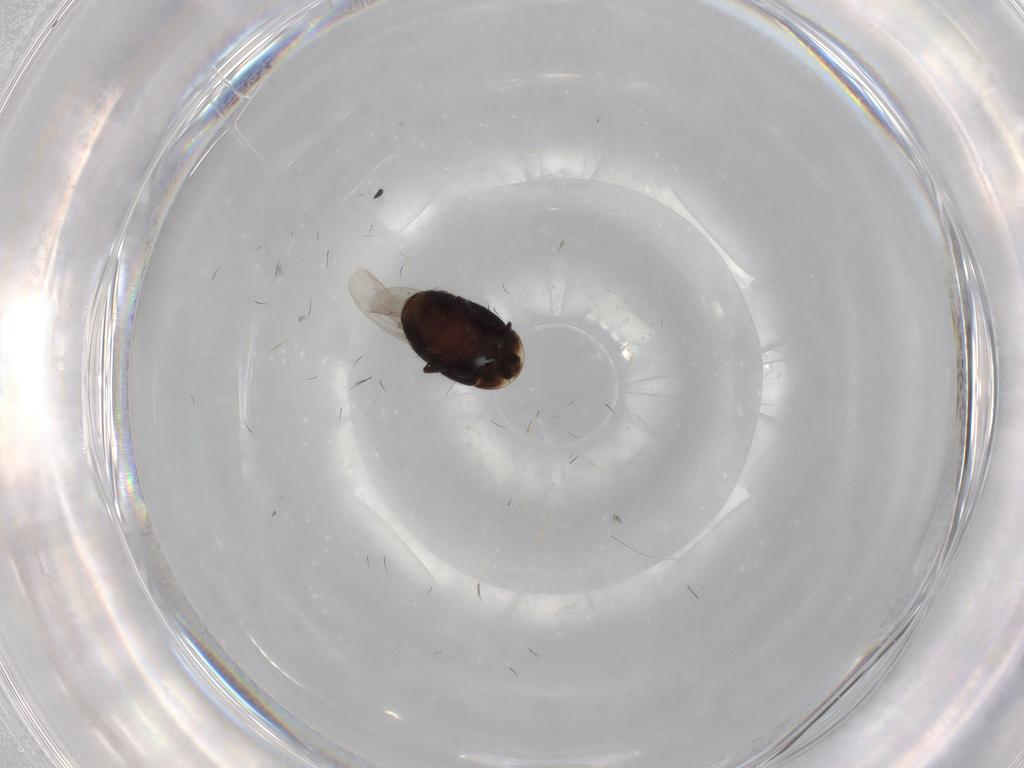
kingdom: Animalia
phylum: Arthropoda
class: Insecta
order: Coleoptera
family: Corylophidae
